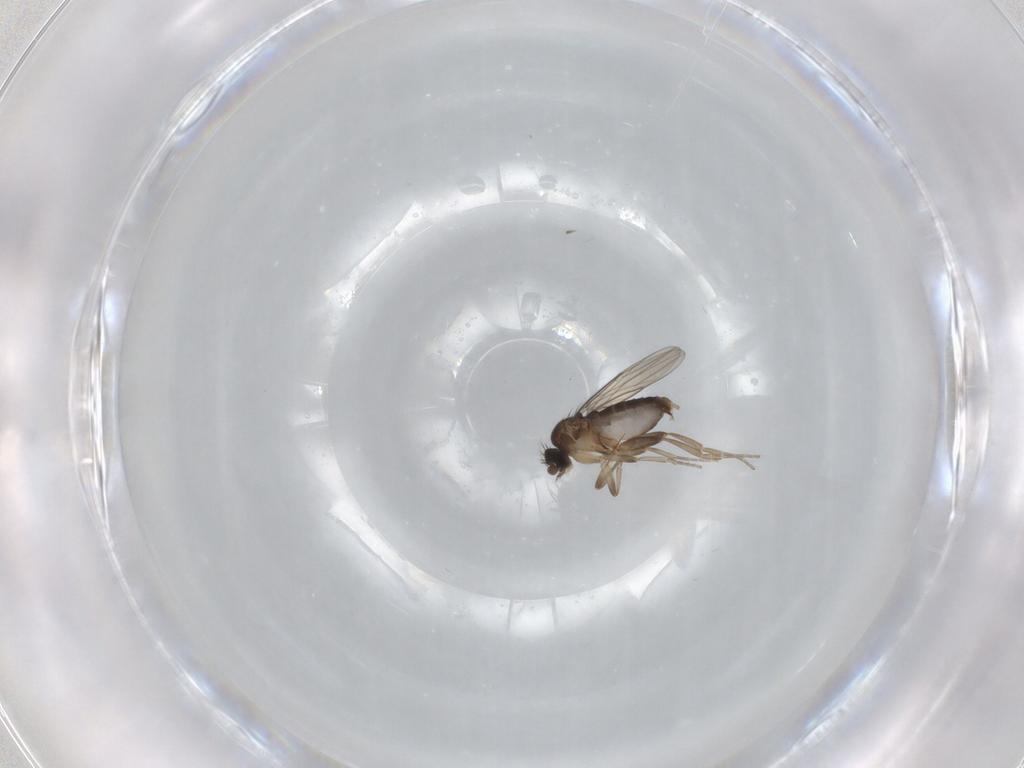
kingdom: Animalia
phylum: Arthropoda
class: Insecta
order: Diptera
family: Phoridae
